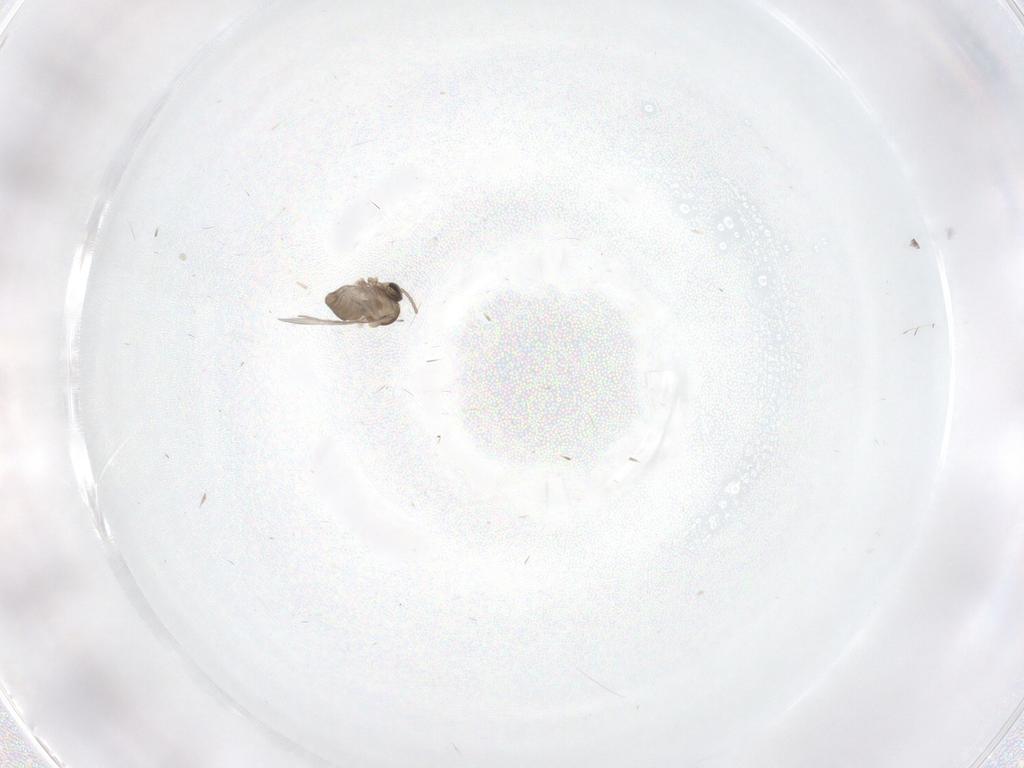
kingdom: Animalia
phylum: Arthropoda
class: Insecta
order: Diptera
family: Cecidomyiidae
